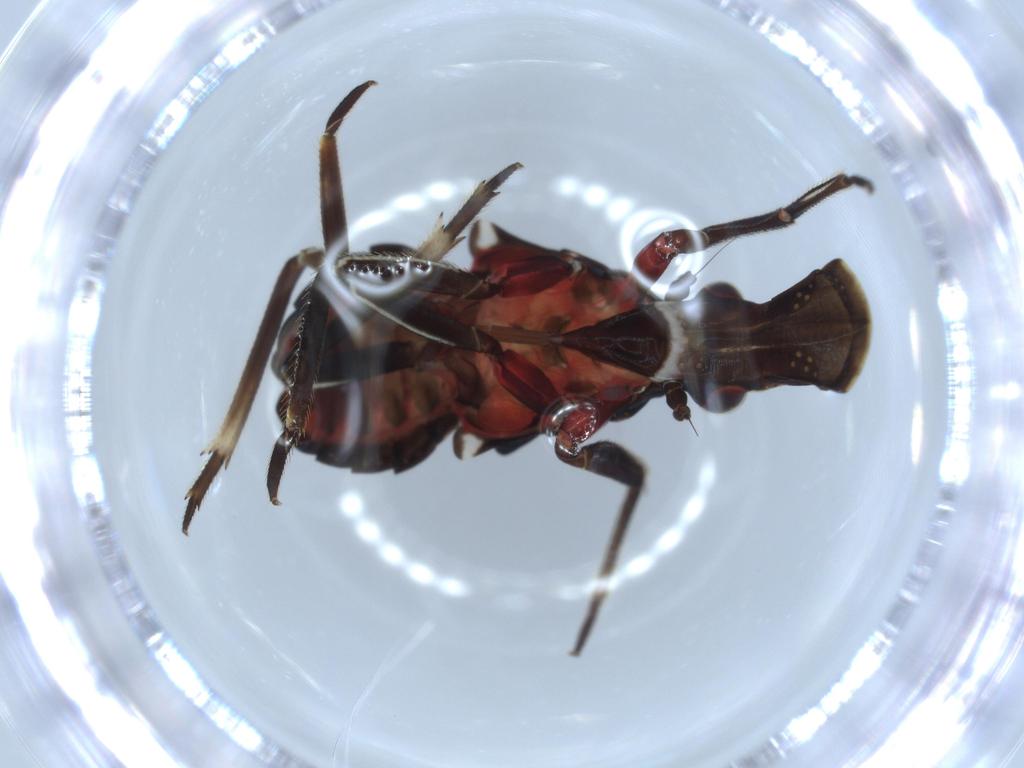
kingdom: Animalia
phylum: Arthropoda
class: Insecta
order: Hemiptera
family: Fulgoridae
